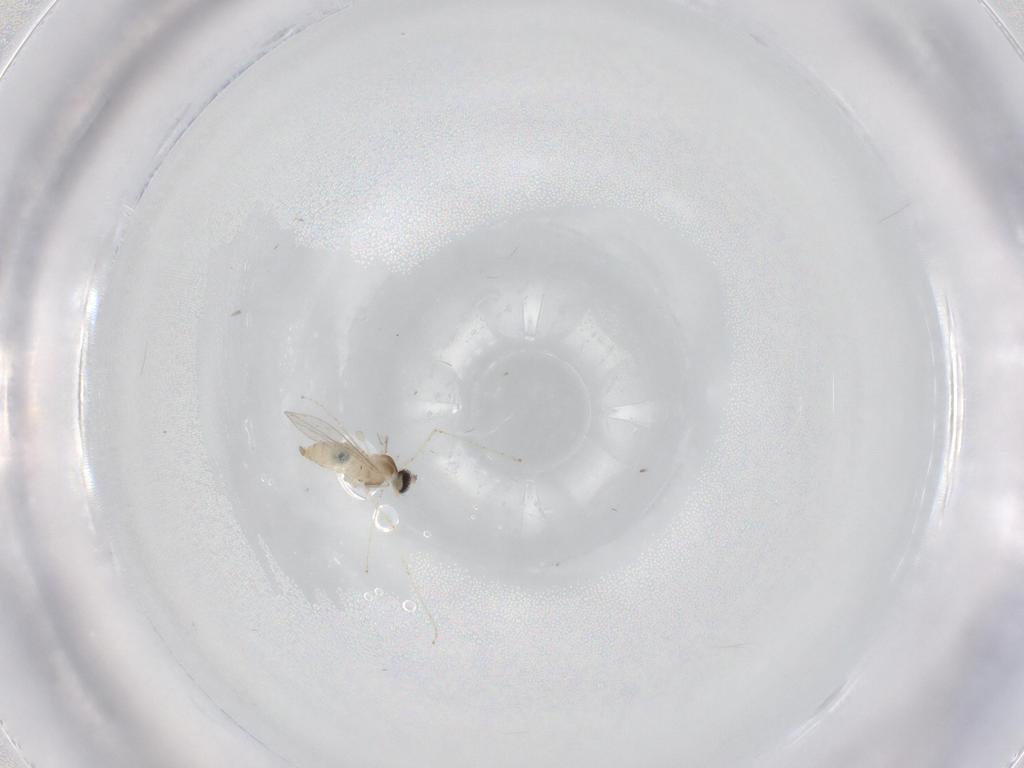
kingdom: Animalia
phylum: Arthropoda
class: Insecta
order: Diptera
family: Cecidomyiidae
